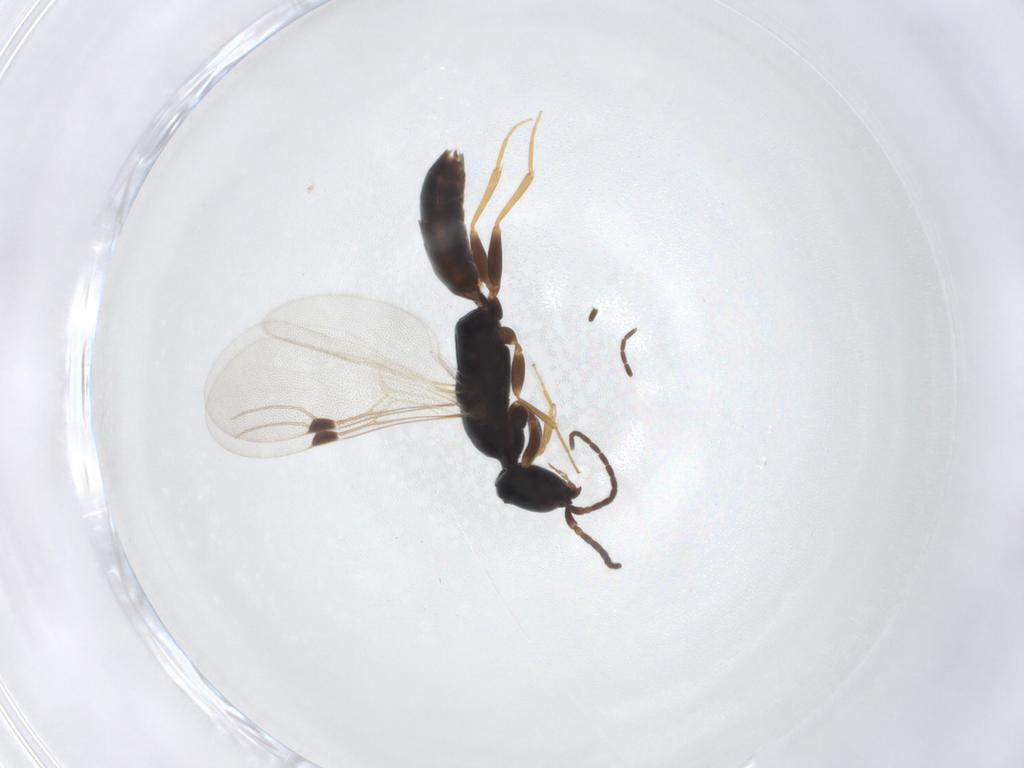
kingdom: Animalia
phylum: Arthropoda
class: Insecta
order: Hymenoptera
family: Bethylidae
